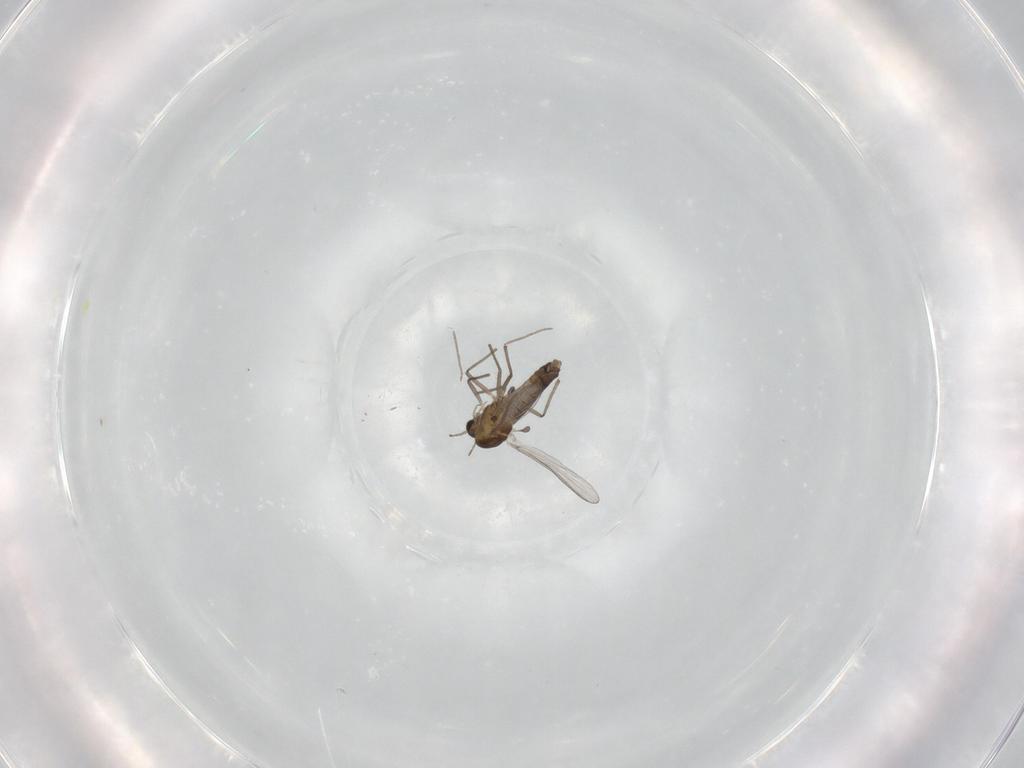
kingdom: Animalia
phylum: Arthropoda
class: Insecta
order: Diptera
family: Chironomidae
